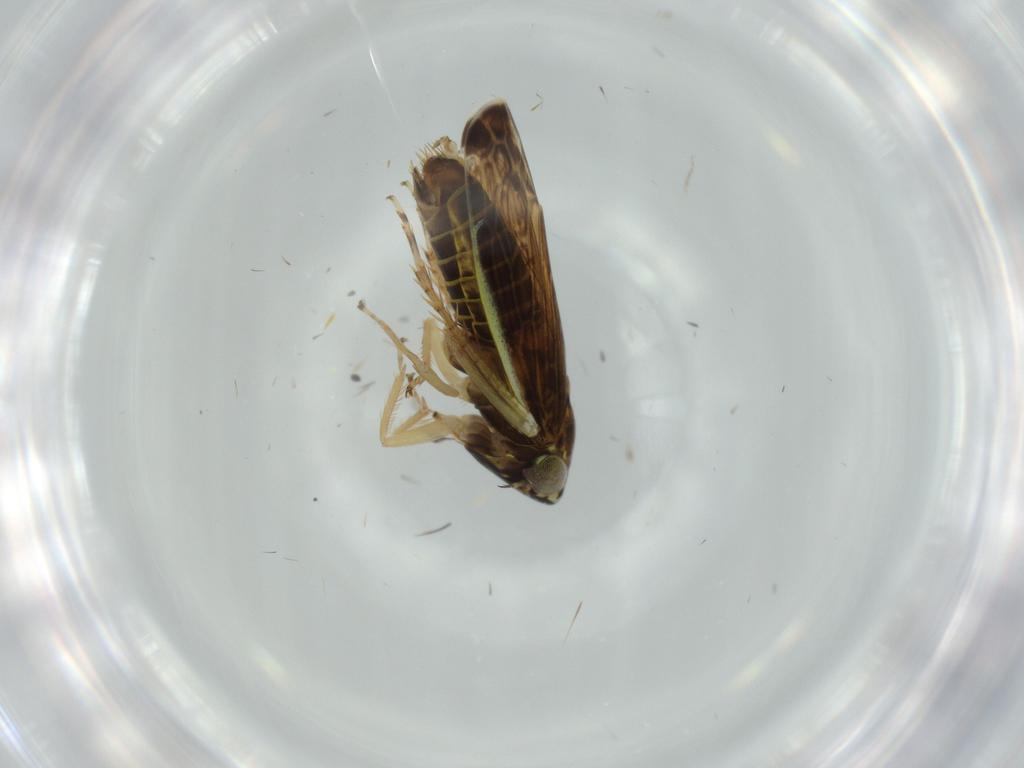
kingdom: Animalia
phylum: Arthropoda
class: Insecta
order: Hemiptera
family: Cicadellidae
